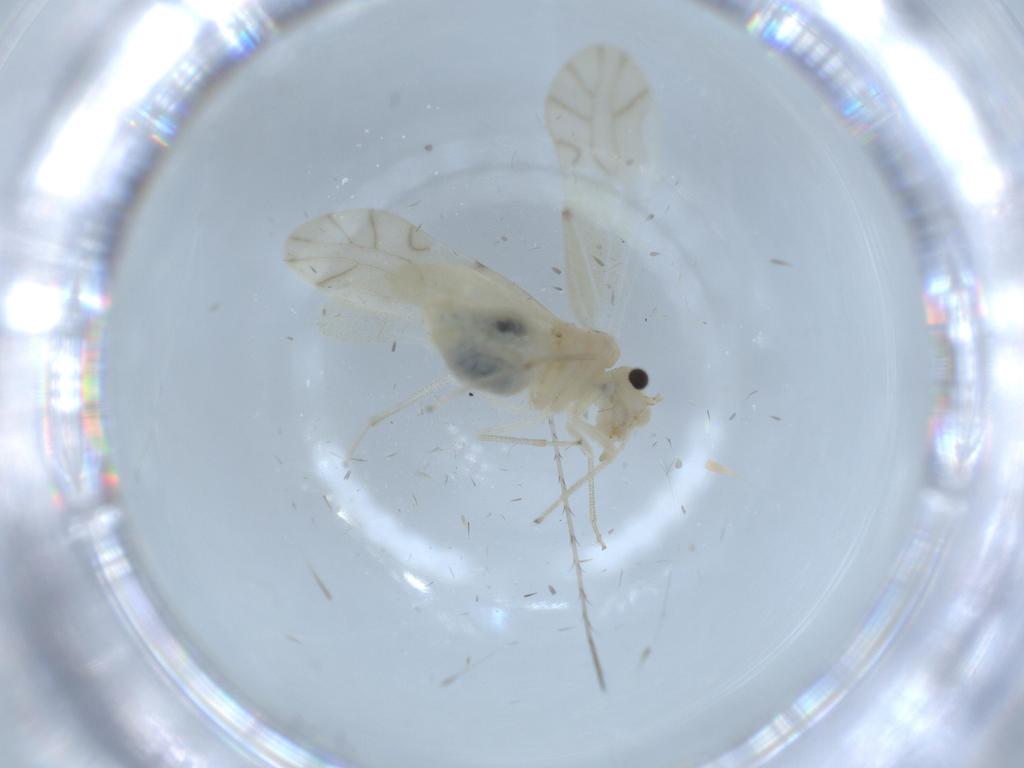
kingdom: Animalia
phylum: Arthropoda
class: Insecta
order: Psocodea
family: Caeciliusidae
